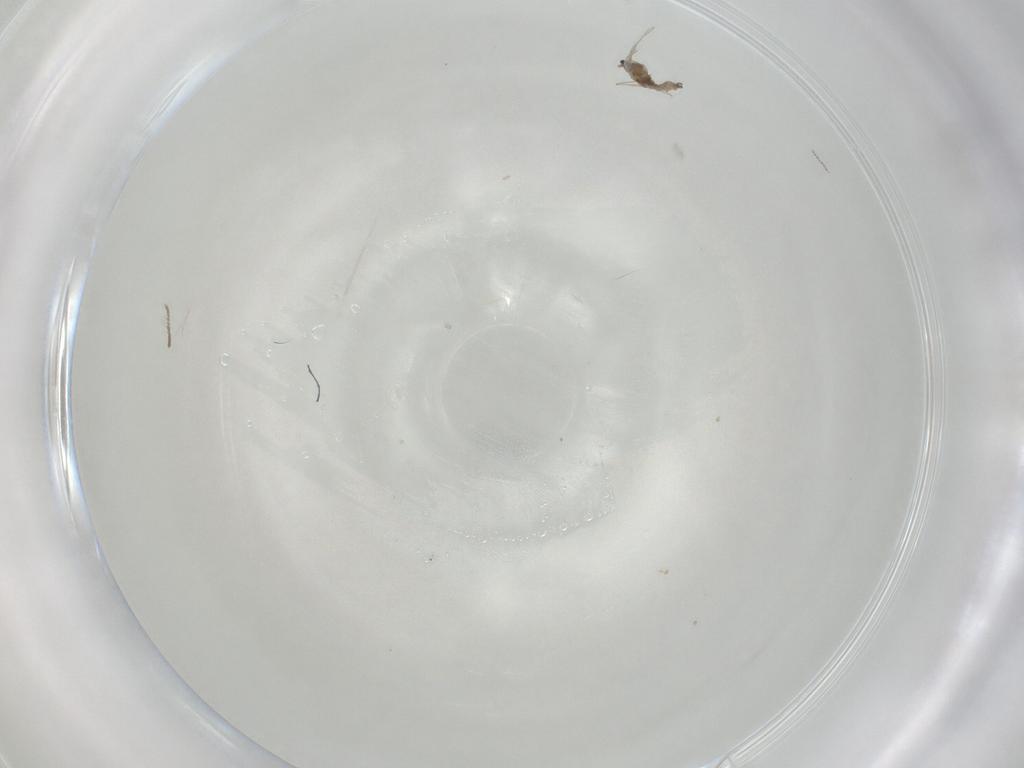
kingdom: Animalia
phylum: Arthropoda
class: Insecta
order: Diptera
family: Cecidomyiidae
